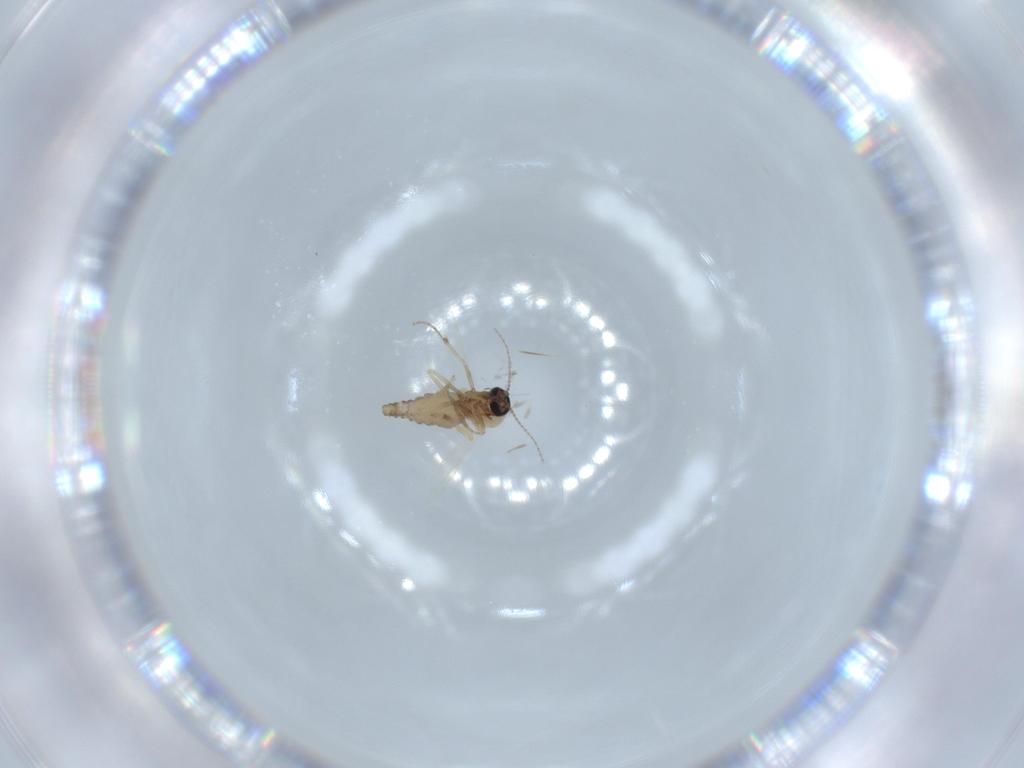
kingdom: Animalia
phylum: Arthropoda
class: Insecta
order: Diptera
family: Ceratopogonidae
